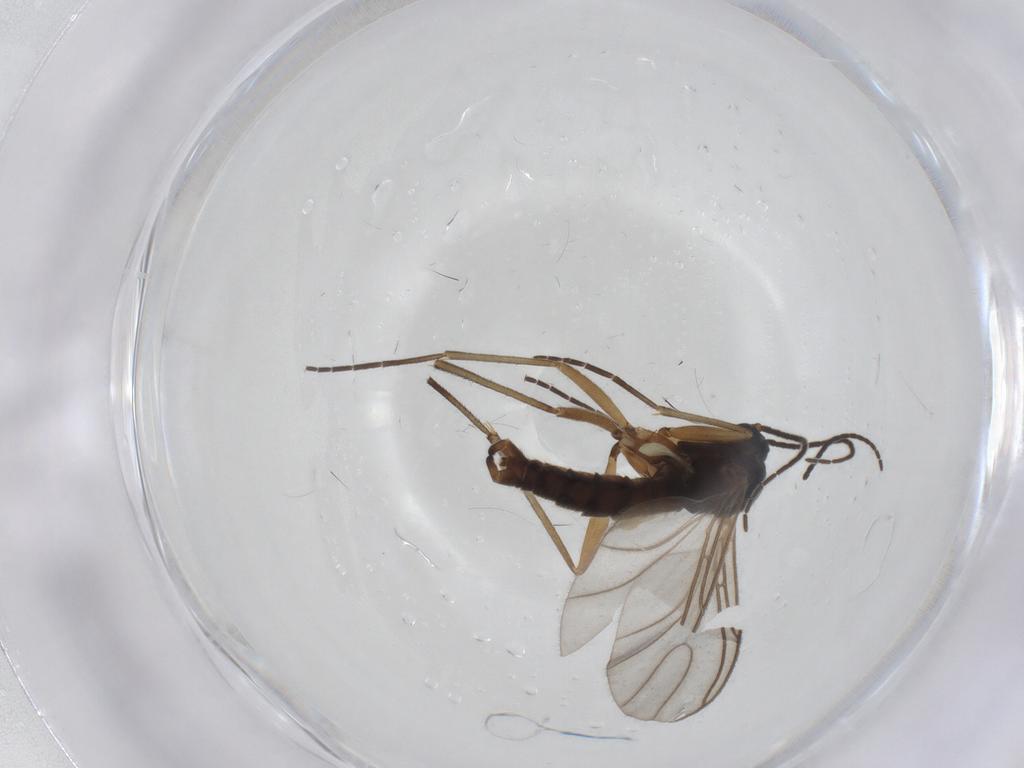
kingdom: Animalia
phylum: Arthropoda
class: Insecta
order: Diptera
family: Sciaridae
